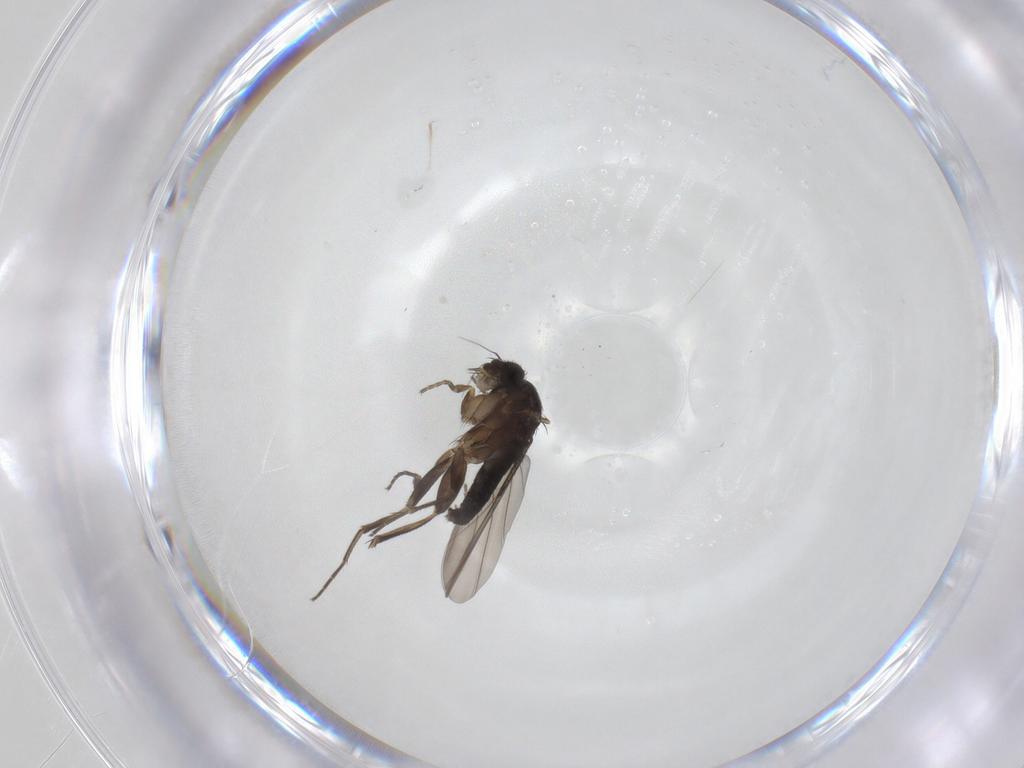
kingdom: Animalia
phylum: Arthropoda
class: Insecta
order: Diptera
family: Phoridae
